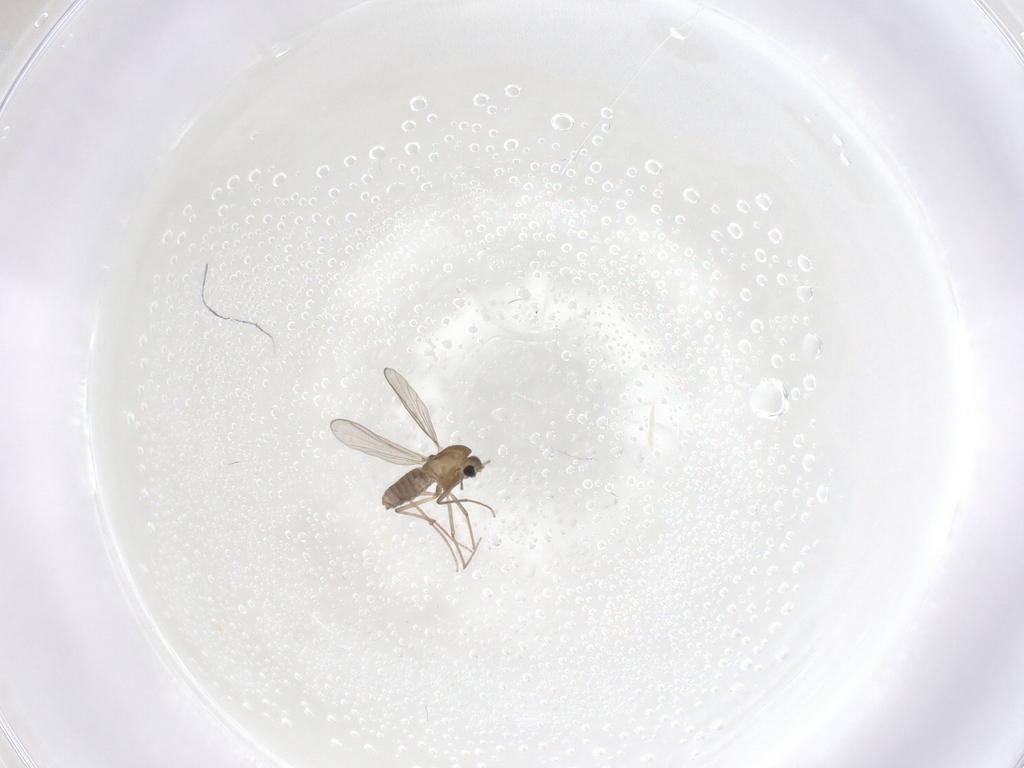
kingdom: Animalia
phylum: Arthropoda
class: Insecta
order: Diptera
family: Chironomidae
